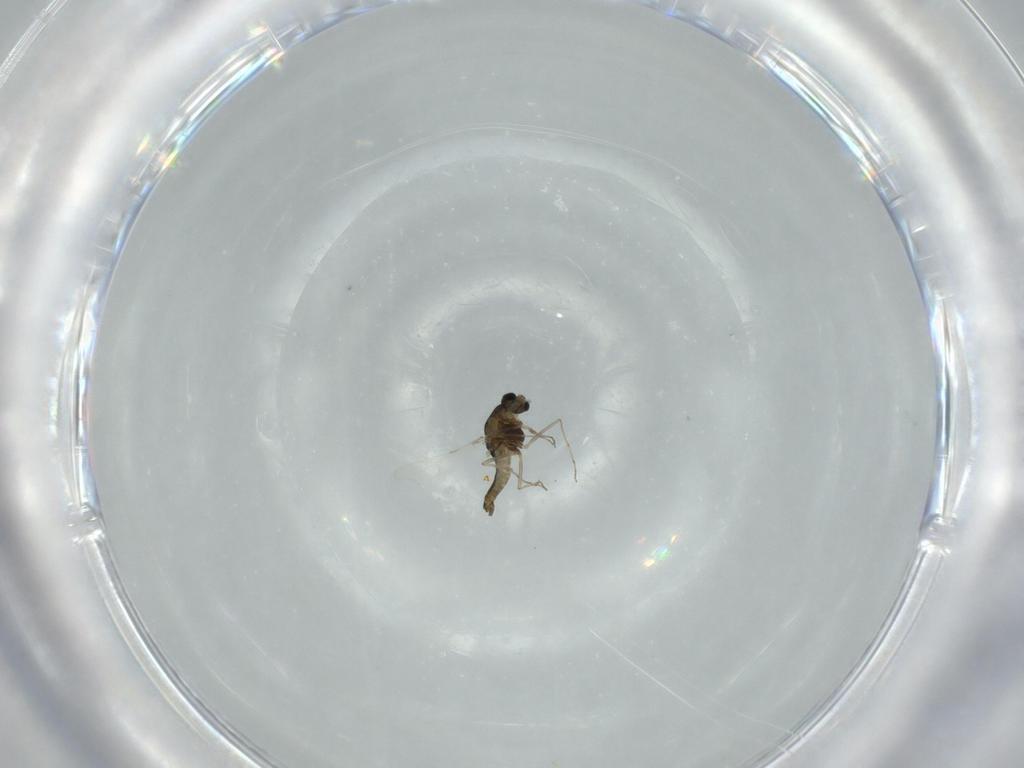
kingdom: Animalia
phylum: Arthropoda
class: Insecta
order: Diptera
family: Chironomidae
